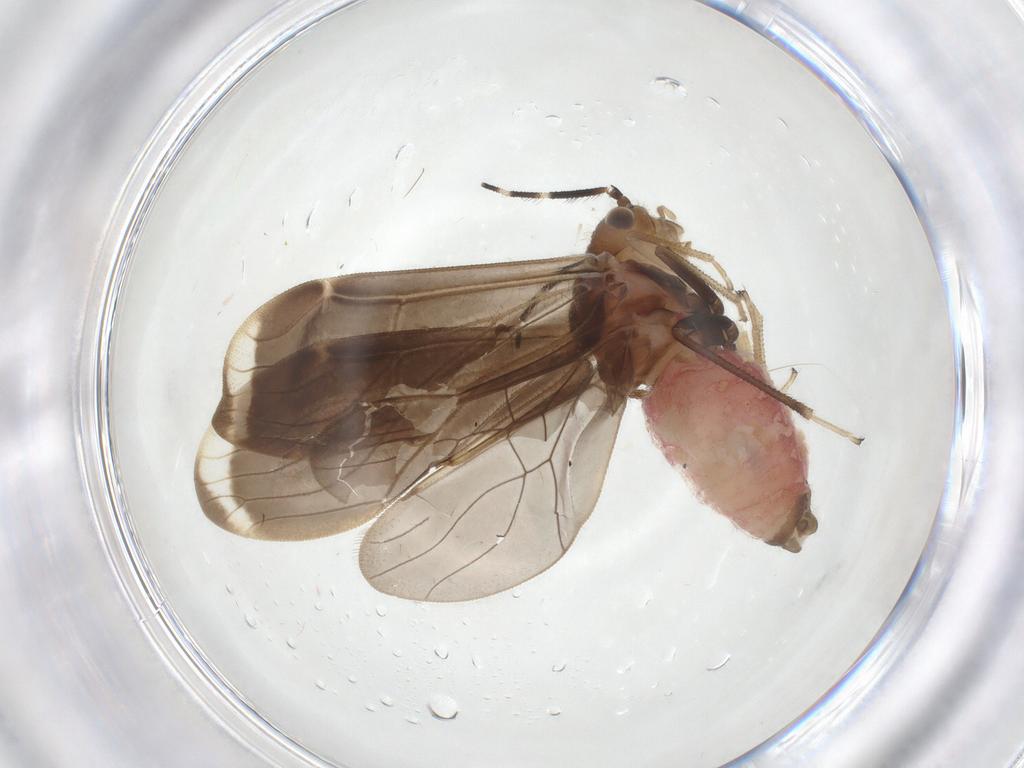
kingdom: Animalia
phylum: Arthropoda
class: Insecta
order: Psocodea
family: Amphipsocidae
